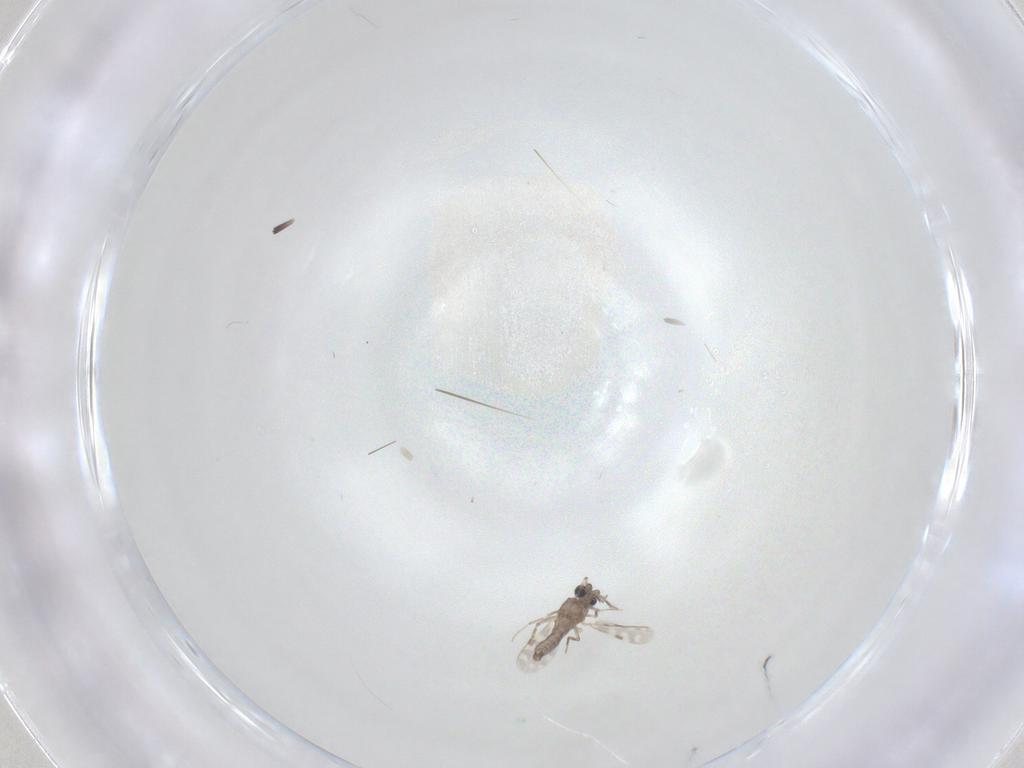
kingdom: Animalia
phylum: Arthropoda
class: Insecta
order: Diptera
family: Ceratopogonidae
